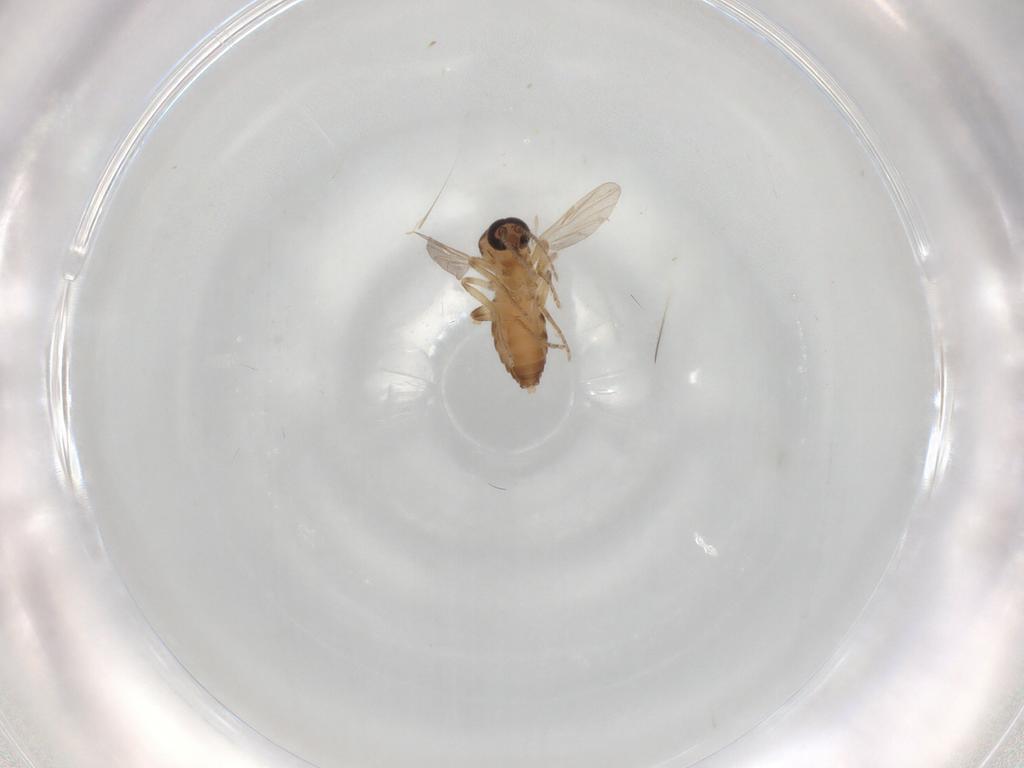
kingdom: Animalia
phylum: Arthropoda
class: Insecta
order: Diptera
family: Ceratopogonidae
